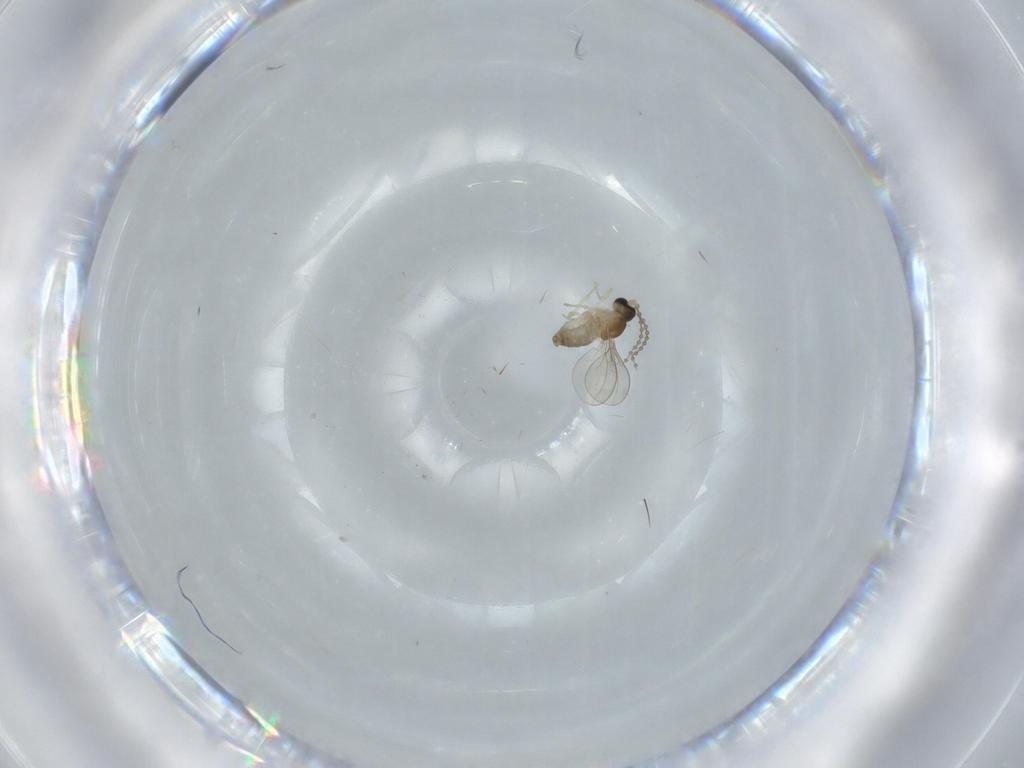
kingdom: Animalia
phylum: Arthropoda
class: Insecta
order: Diptera
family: Cecidomyiidae
